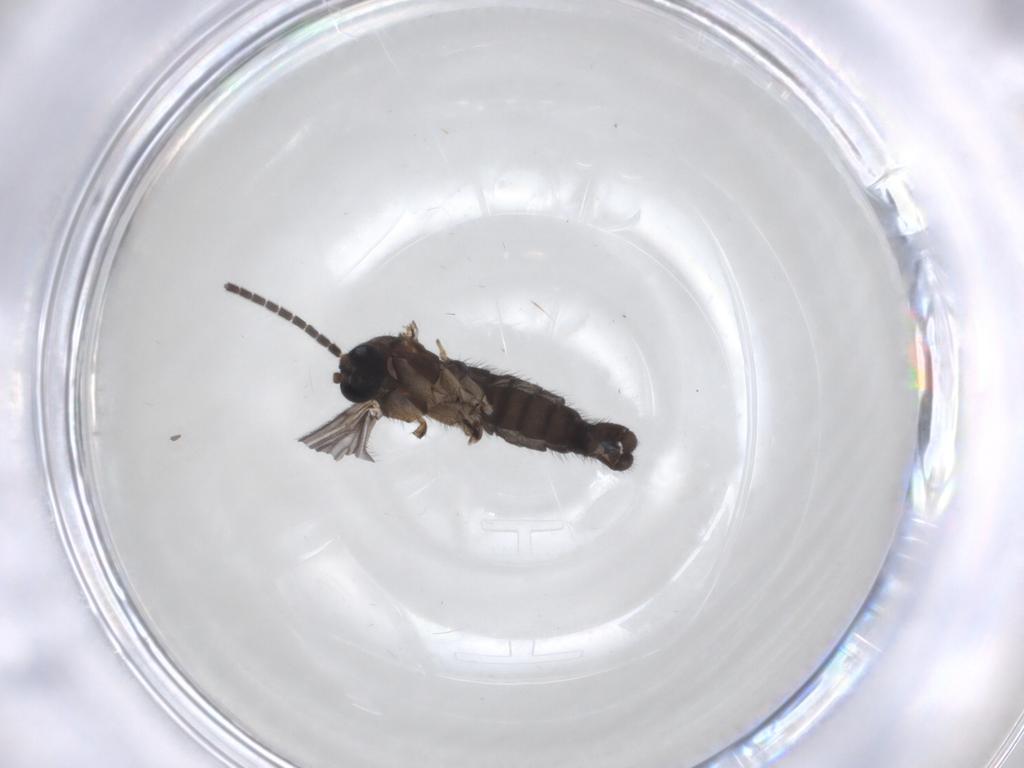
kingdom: Animalia
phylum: Arthropoda
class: Insecta
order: Diptera
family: Sciaridae
